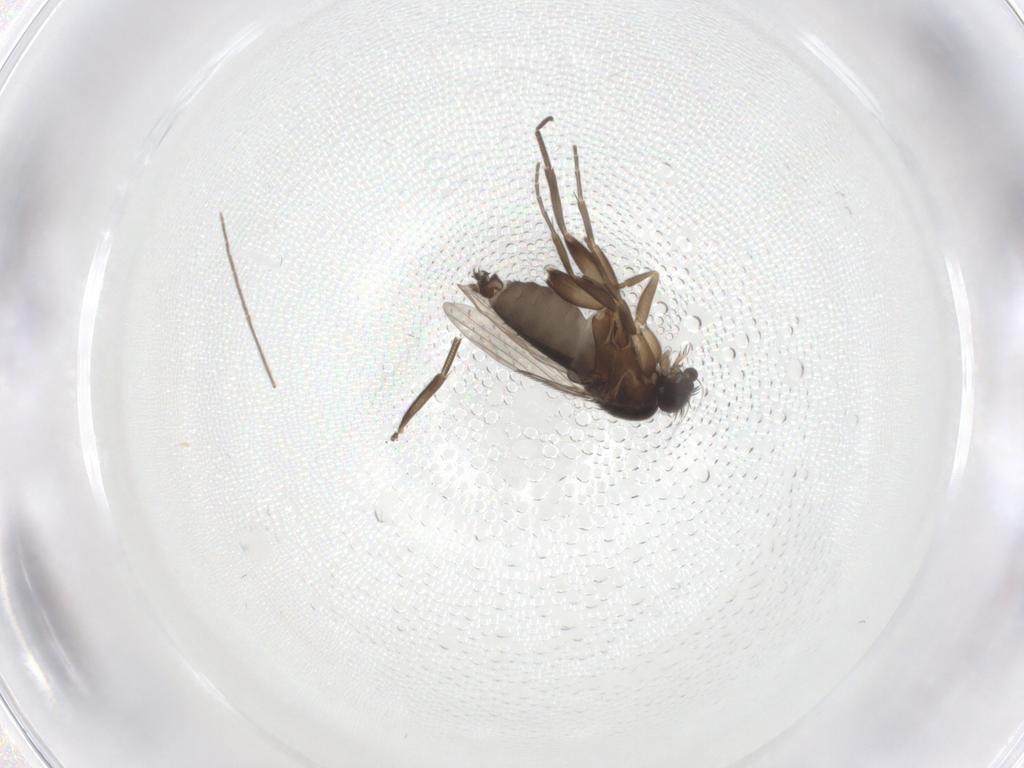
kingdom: Animalia
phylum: Arthropoda
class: Insecta
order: Diptera
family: Phoridae
